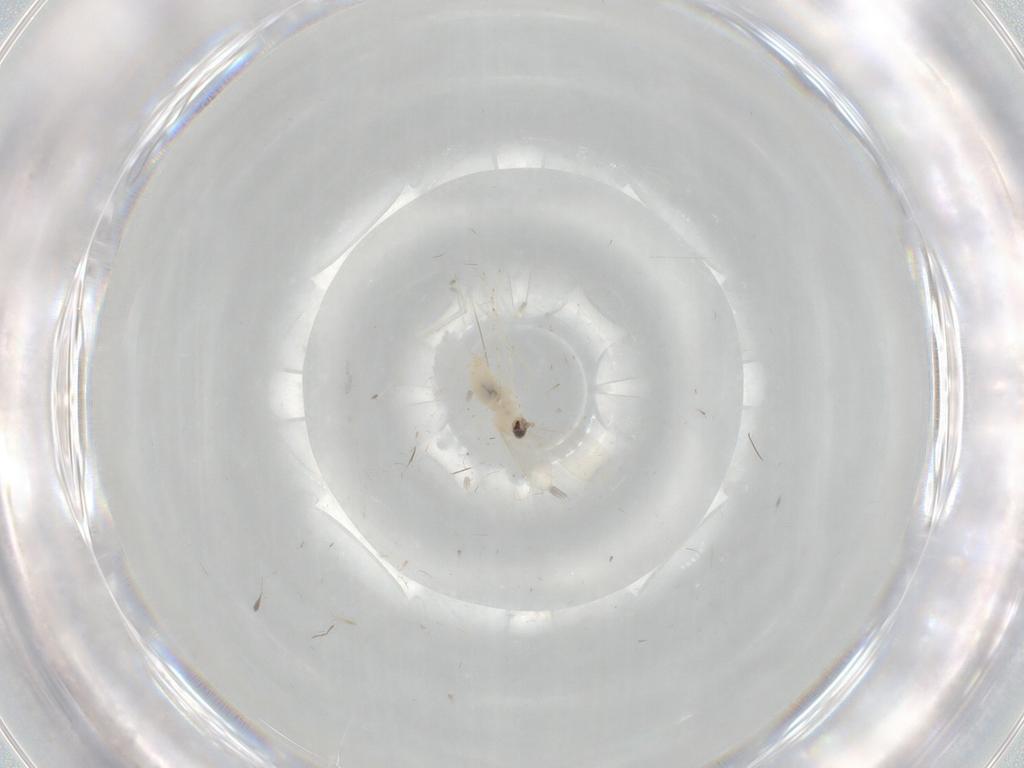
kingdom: Animalia
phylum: Arthropoda
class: Insecta
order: Diptera
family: Cecidomyiidae
